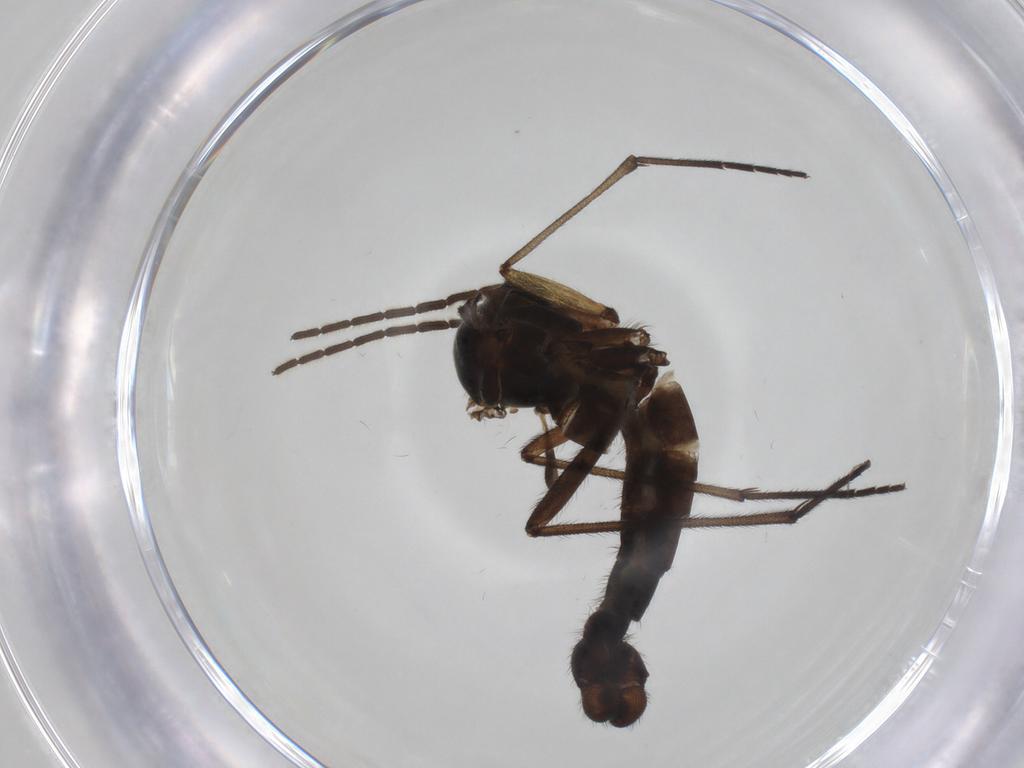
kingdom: Animalia
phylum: Arthropoda
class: Insecta
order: Diptera
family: Sciaridae
